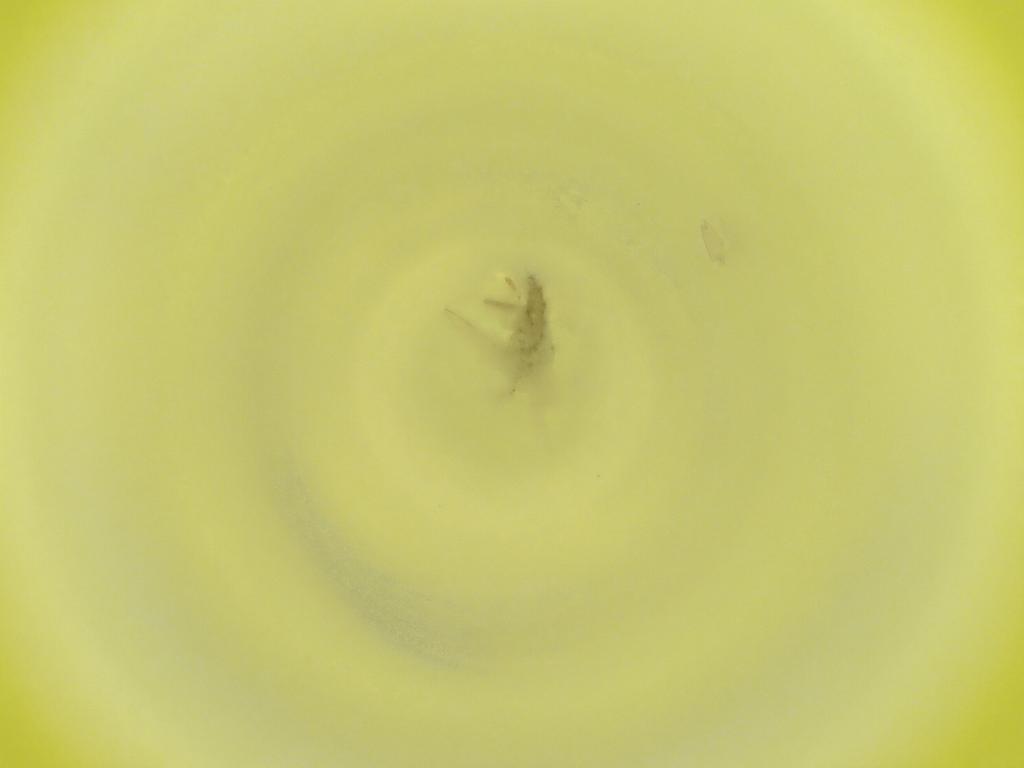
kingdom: Animalia
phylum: Arthropoda
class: Insecta
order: Diptera
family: Cecidomyiidae
